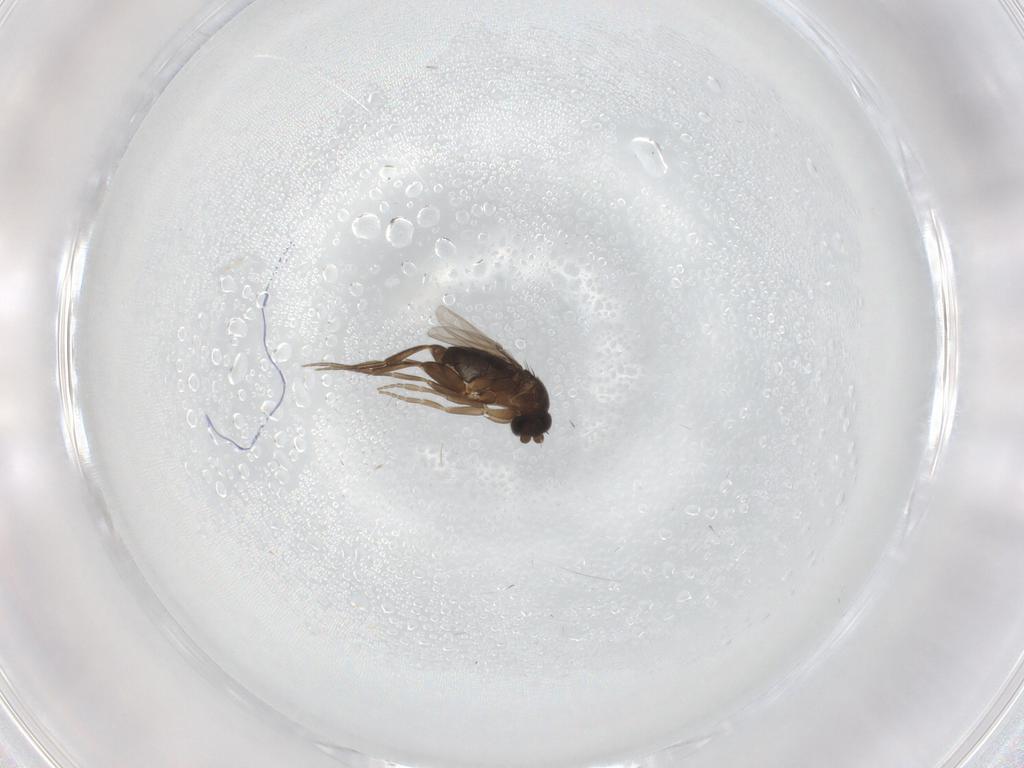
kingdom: Animalia
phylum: Arthropoda
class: Insecta
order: Diptera
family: Phoridae
